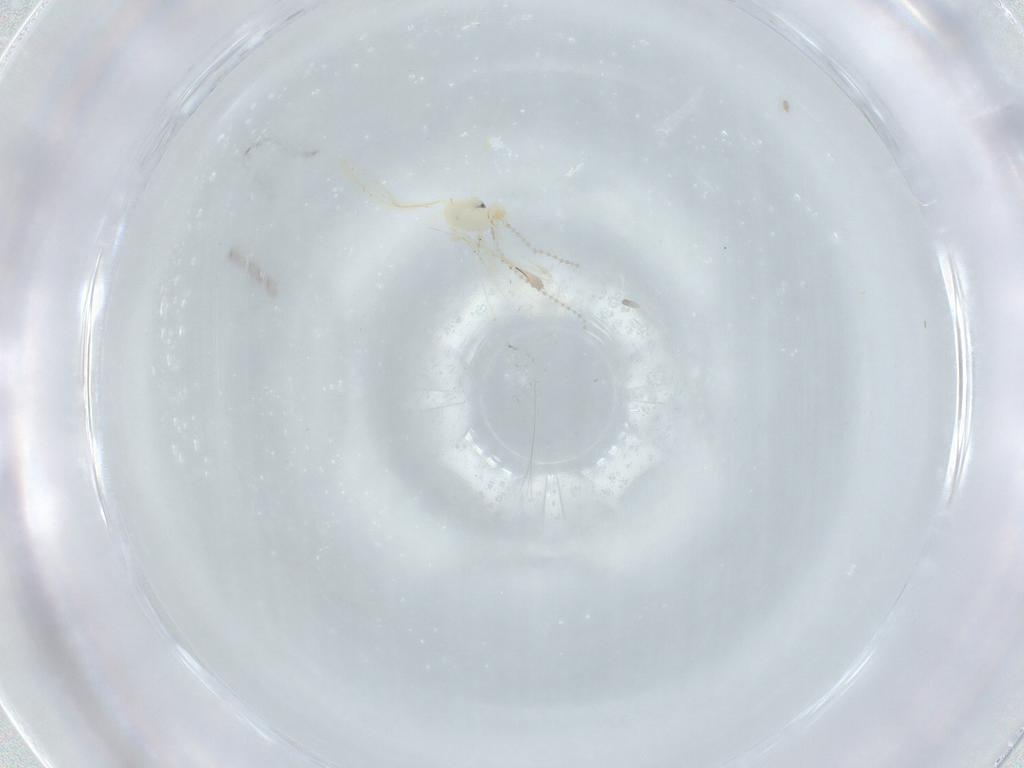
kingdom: Animalia
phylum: Arthropoda
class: Insecta
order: Diptera
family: Cecidomyiidae
